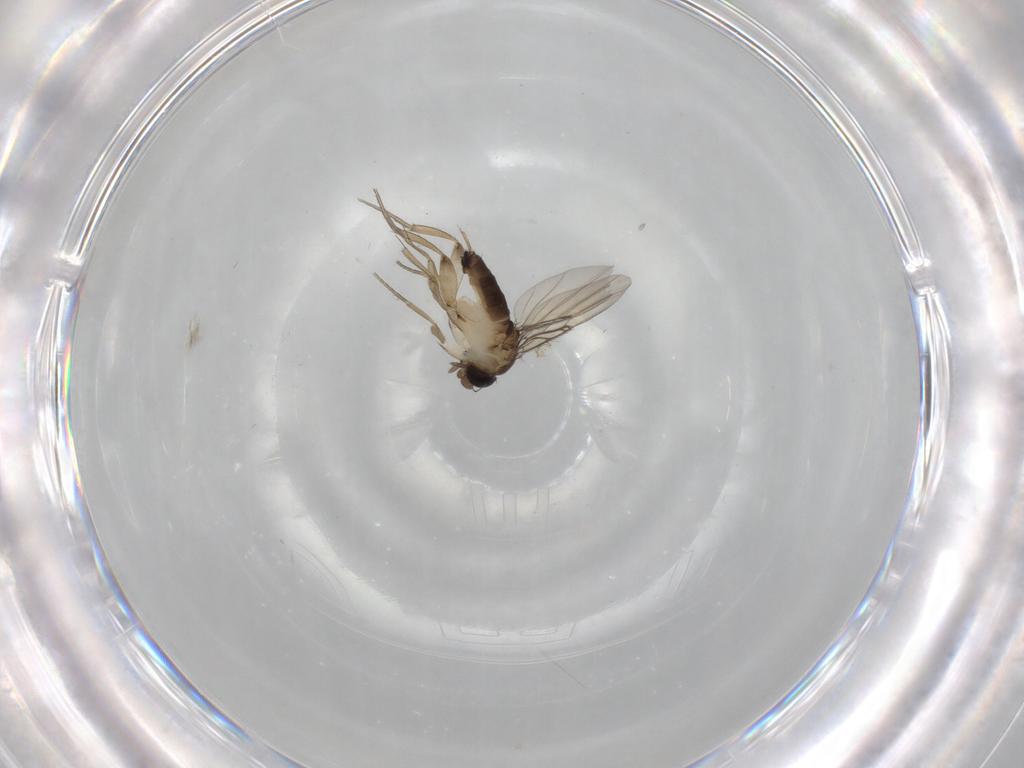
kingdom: Animalia
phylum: Arthropoda
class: Insecta
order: Diptera
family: Phoridae
